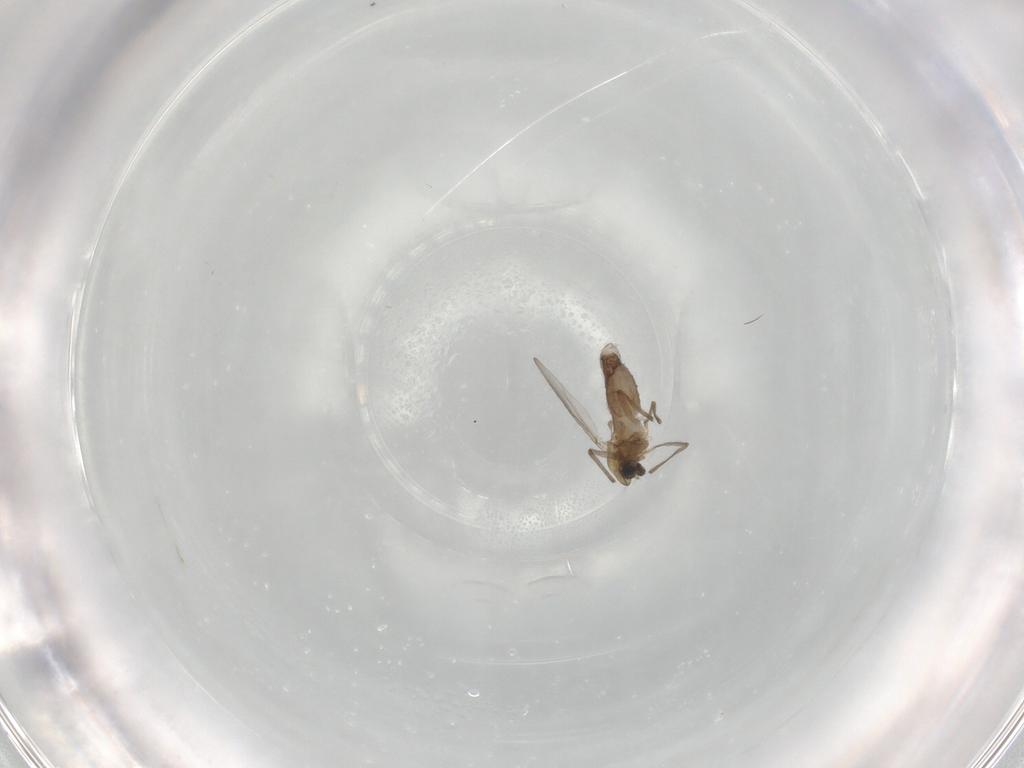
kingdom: Animalia
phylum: Arthropoda
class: Insecta
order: Diptera
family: Chironomidae
